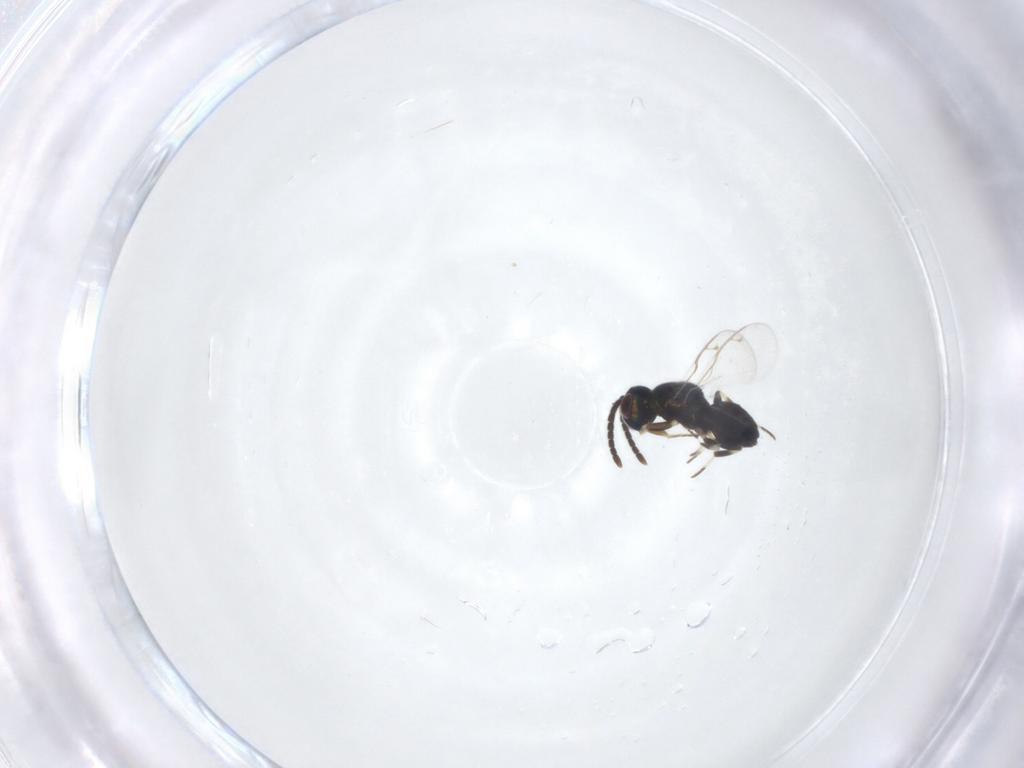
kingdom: Animalia
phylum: Arthropoda
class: Insecta
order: Hymenoptera
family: Eupelmidae
